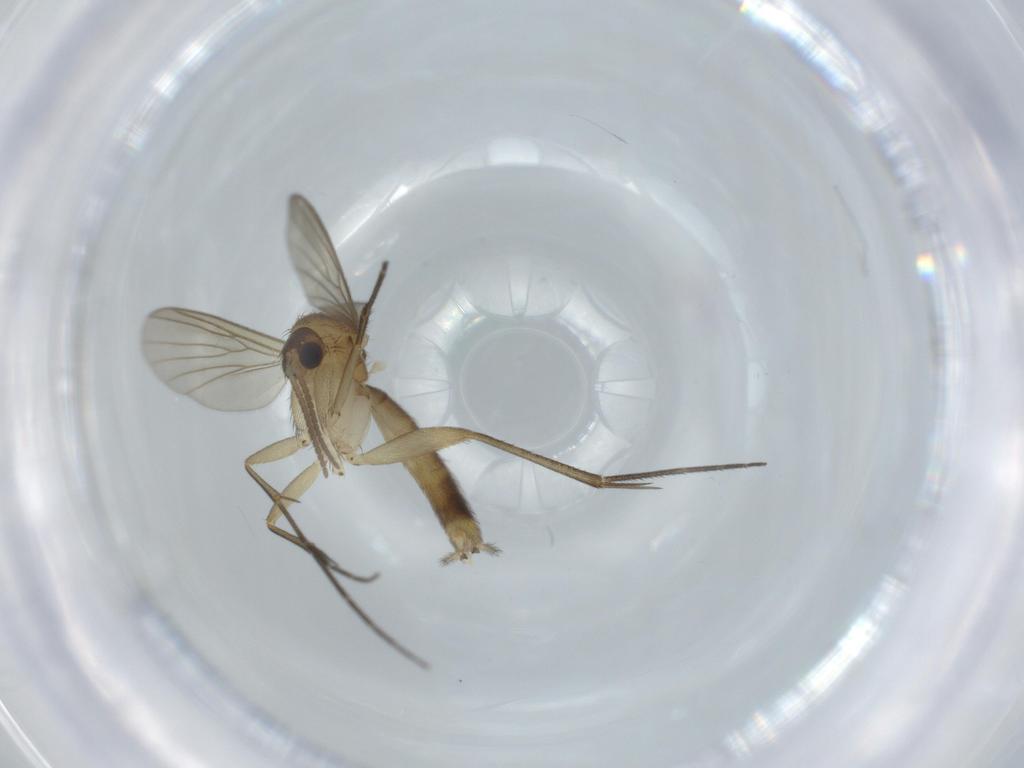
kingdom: Animalia
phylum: Arthropoda
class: Insecta
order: Diptera
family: Mycetophilidae
